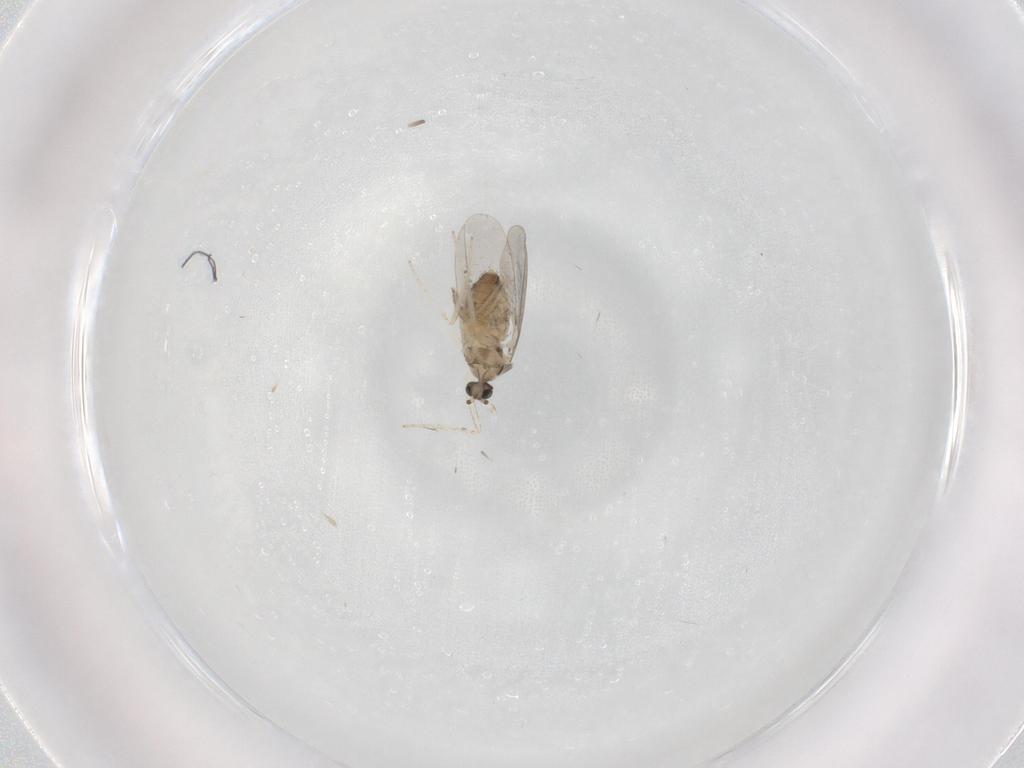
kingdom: Animalia
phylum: Arthropoda
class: Insecta
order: Diptera
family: Cecidomyiidae
